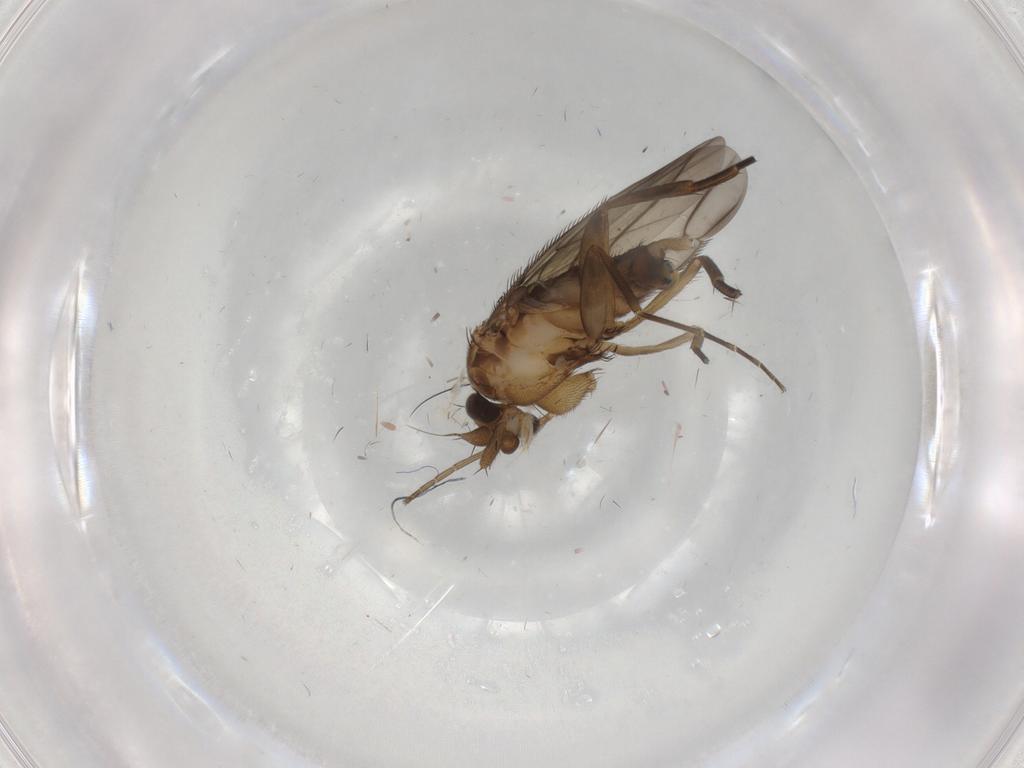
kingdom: Animalia
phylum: Arthropoda
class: Insecta
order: Diptera
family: Phoridae
